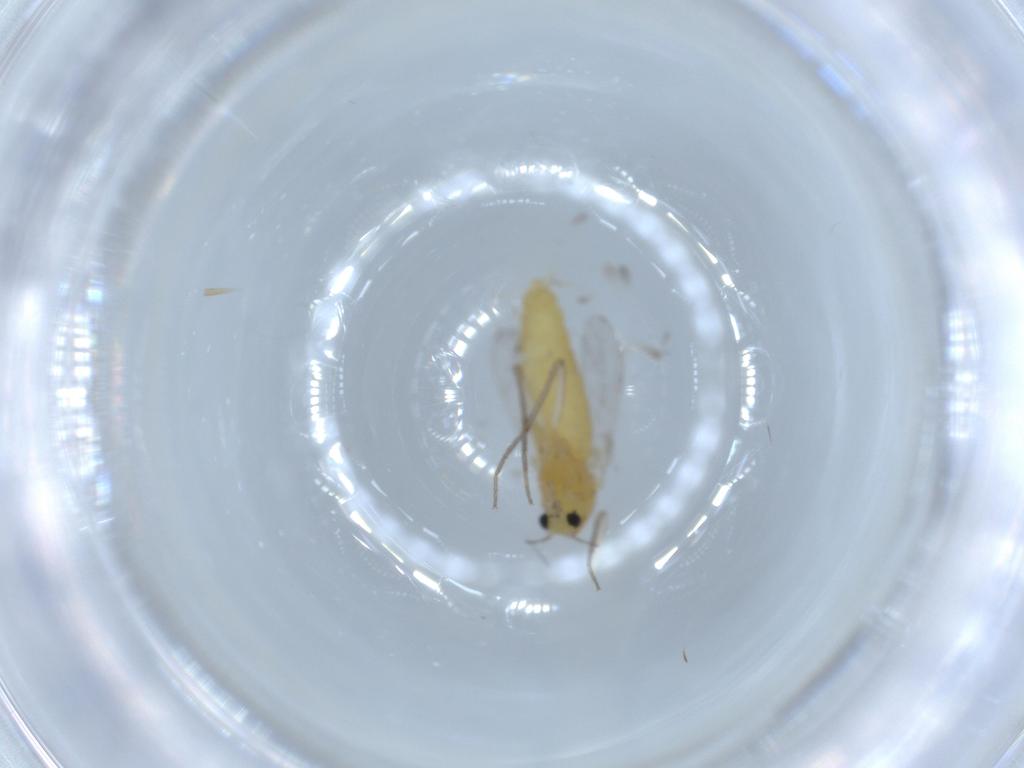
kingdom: Animalia
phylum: Arthropoda
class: Insecta
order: Diptera
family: Chironomidae
